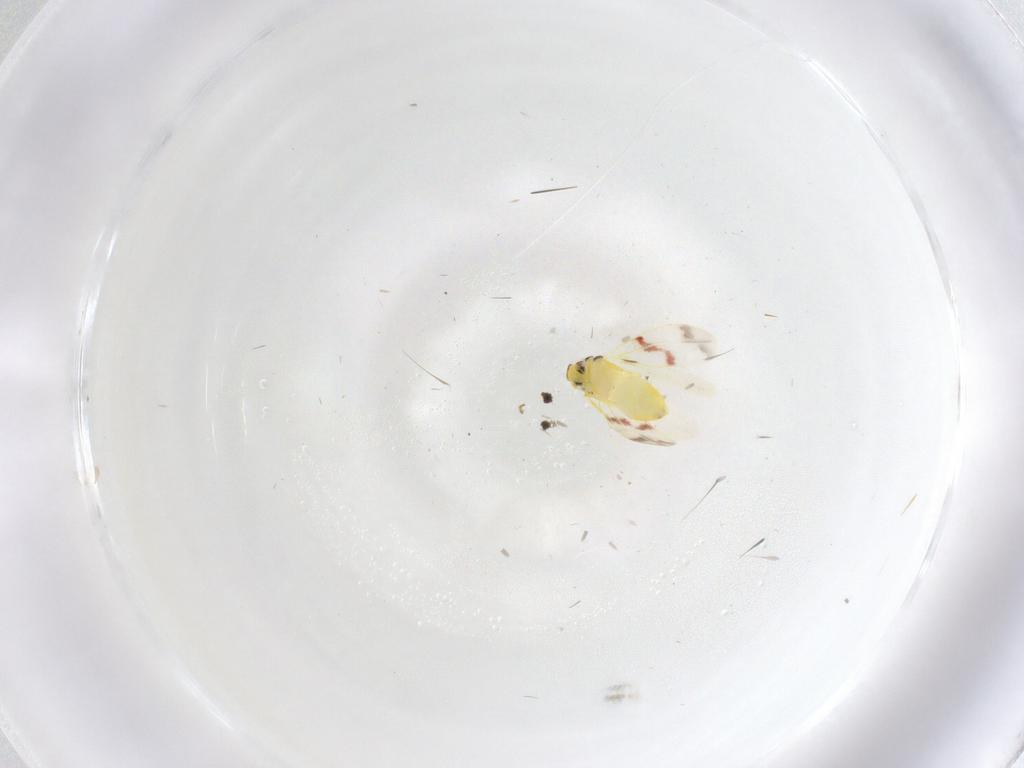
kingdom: Animalia
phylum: Arthropoda
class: Insecta
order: Hemiptera
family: Aleyrodidae
